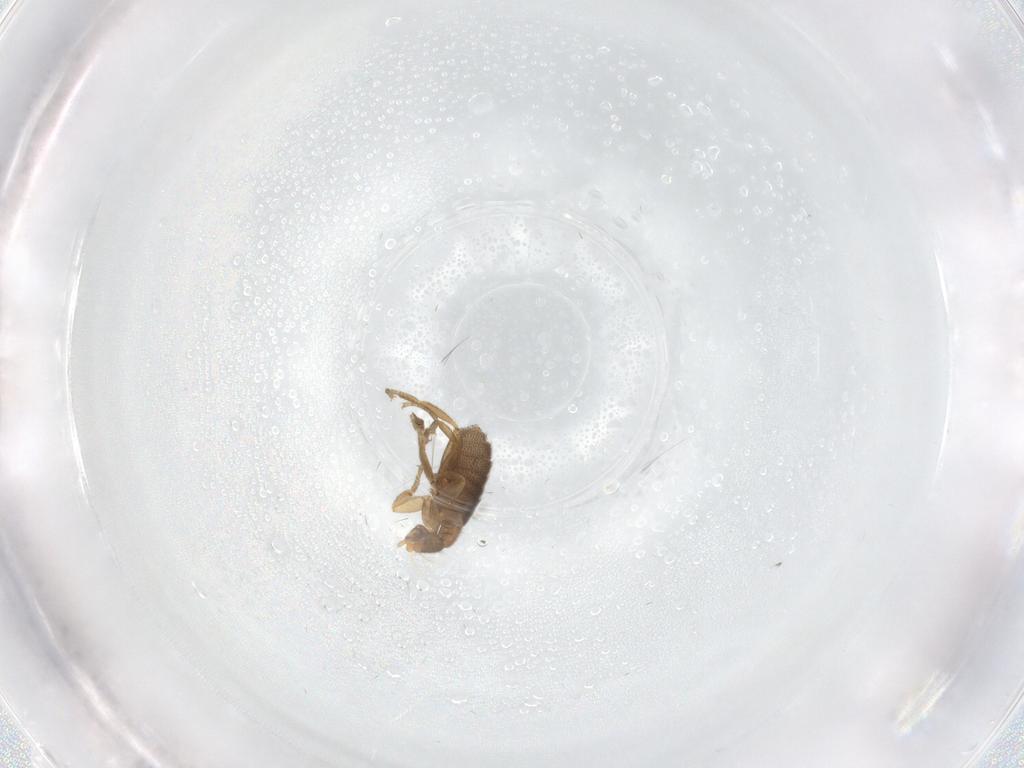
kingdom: Animalia
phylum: Arthropoda
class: Insecta
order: Diptera
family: Phoridae
